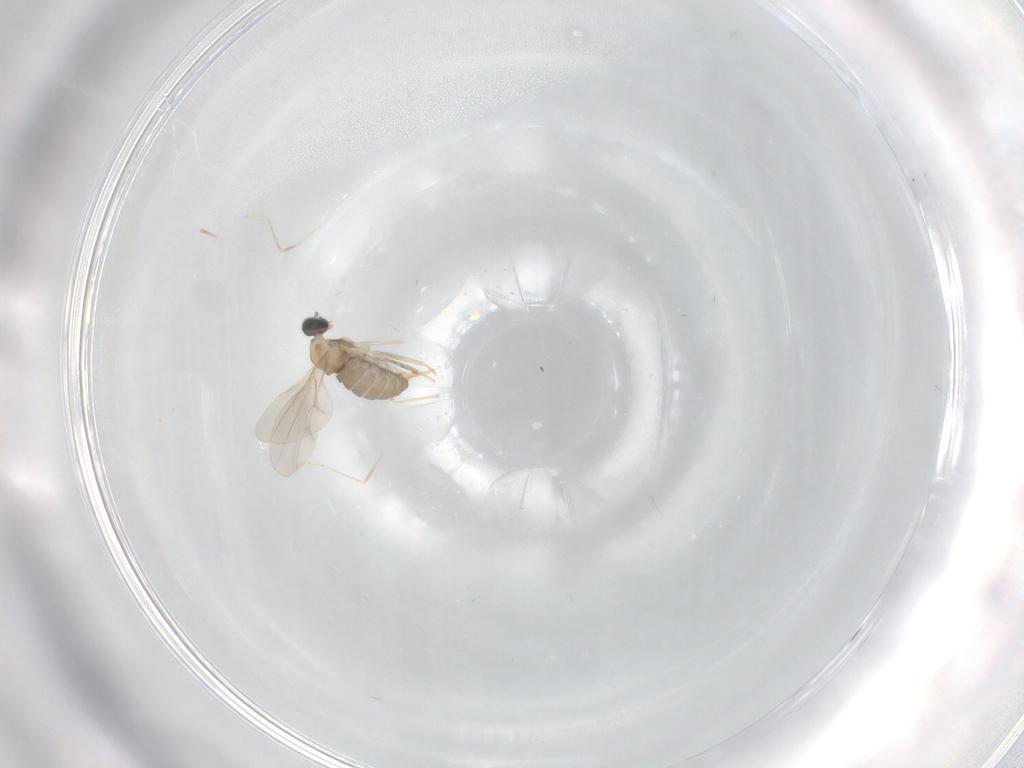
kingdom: Animalia
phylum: Arthropoda
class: Insecta
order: Diptera
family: Cecidomyiidae
